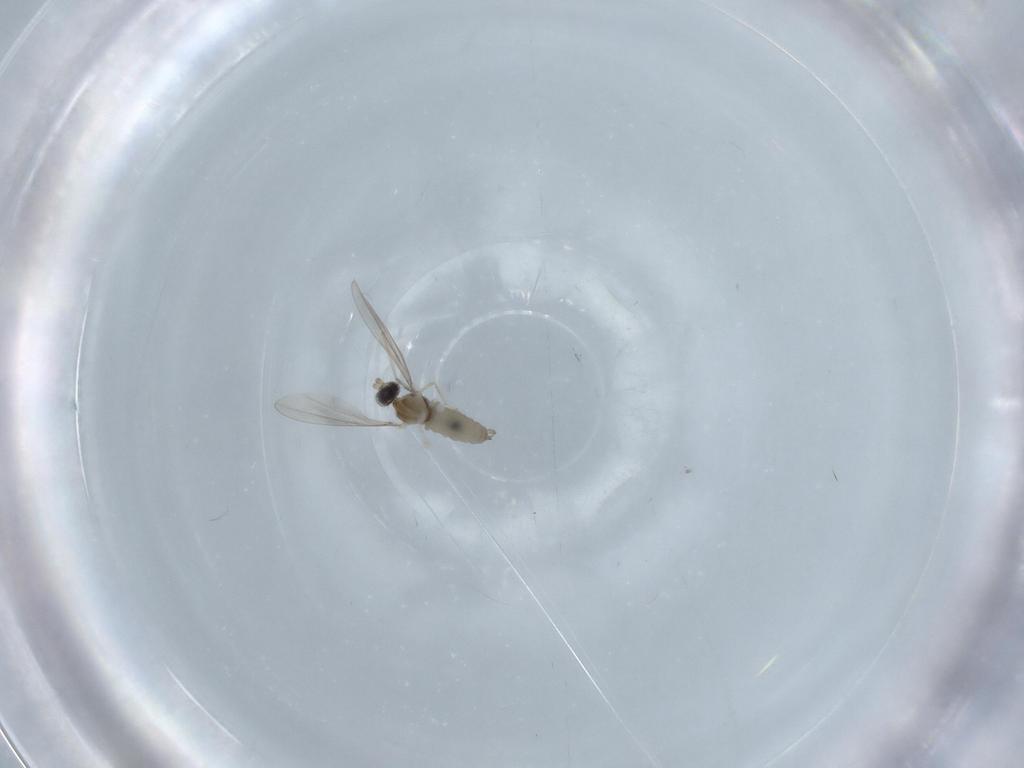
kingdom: Animalia
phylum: Arthropoda
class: Insecta
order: Diptera
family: Cecidomyiidae
